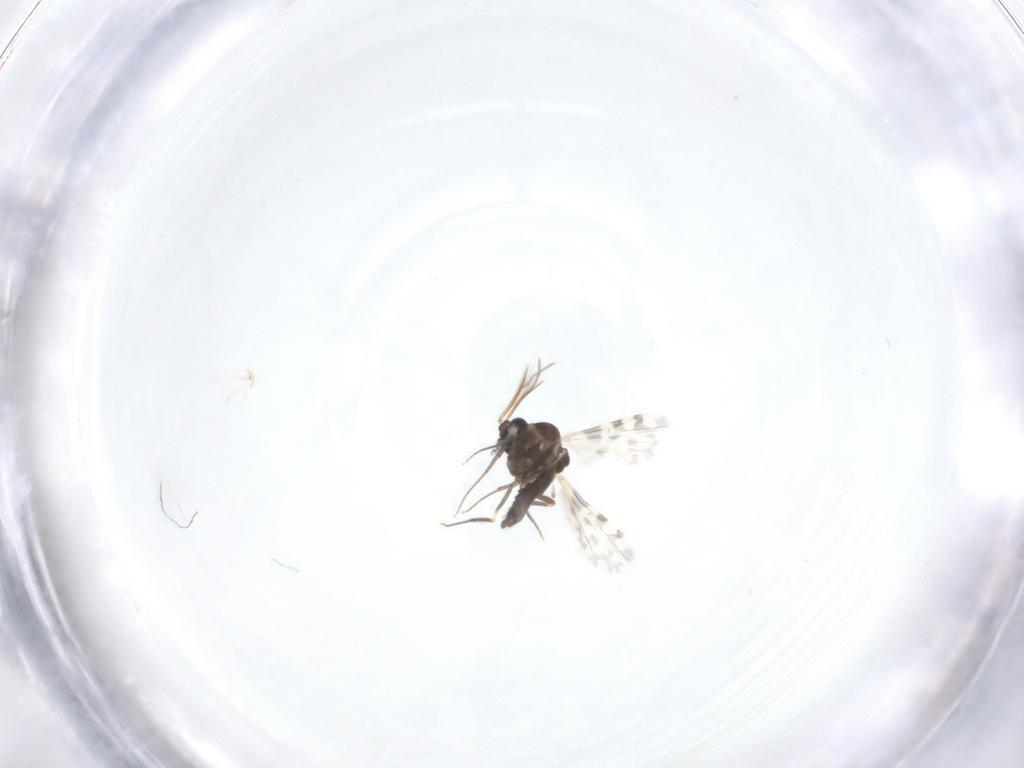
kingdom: Animalia
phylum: Arthropoda
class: Insecta
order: Diptera
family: Ceratopogonidae
